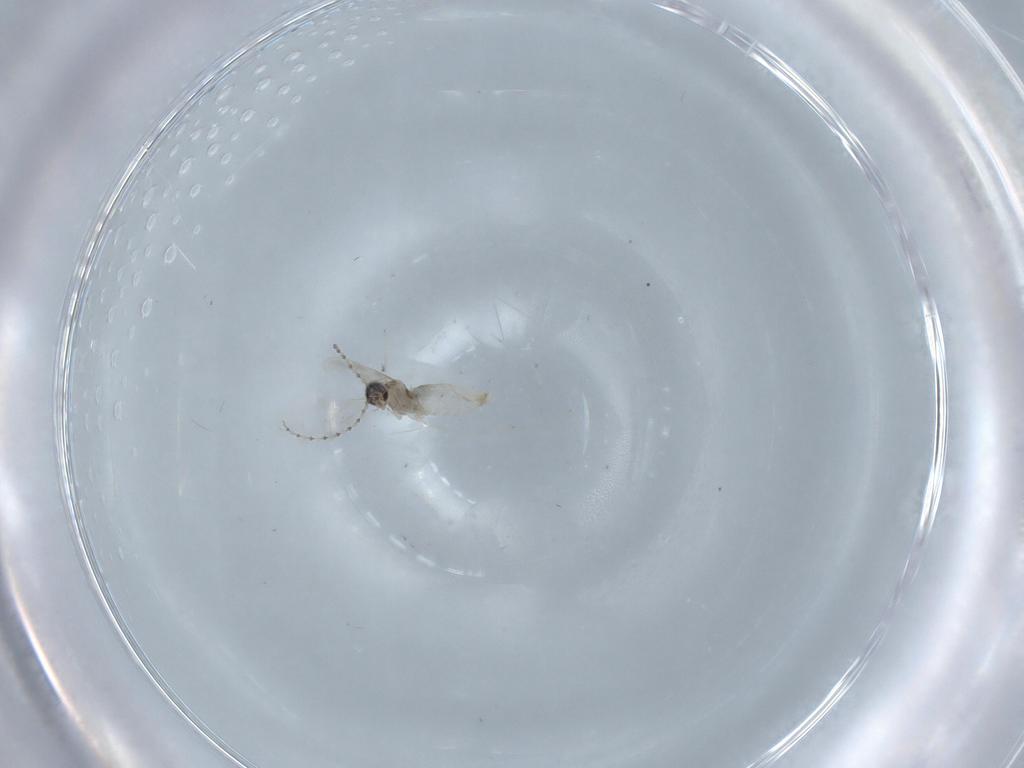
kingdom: Animalia
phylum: Arthropoda
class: Insecta
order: Diptera
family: Cecidomyiidae
